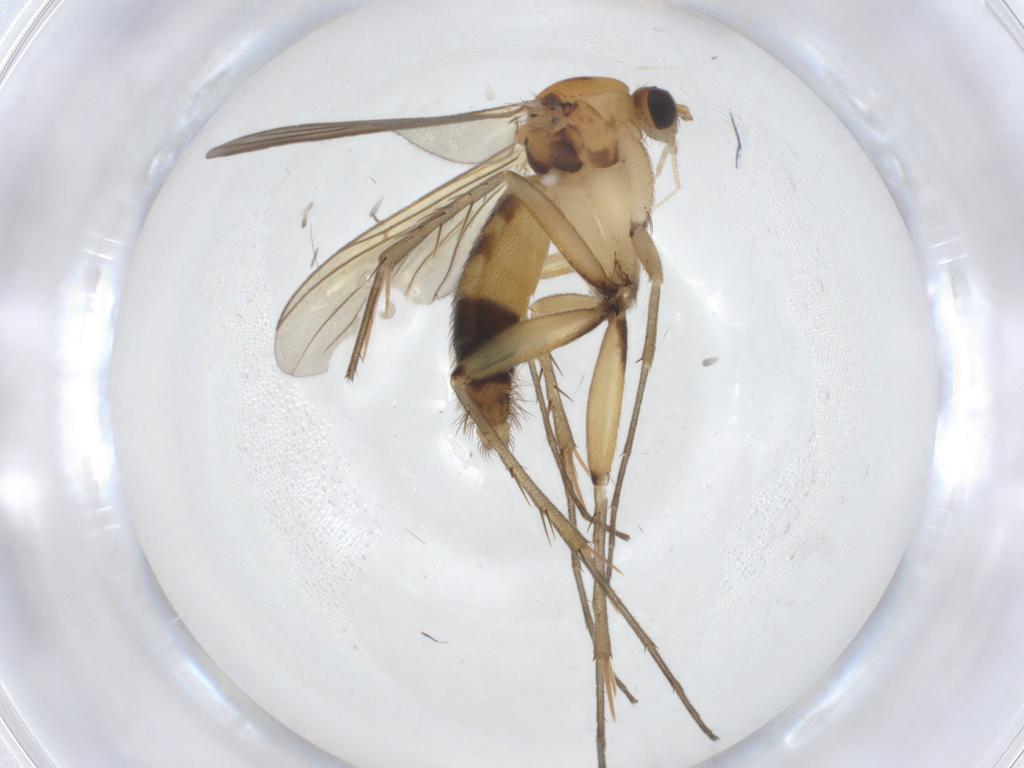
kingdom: Animalia
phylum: Arthropoda
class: Insecta
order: Diptera
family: Mycetophilidae
